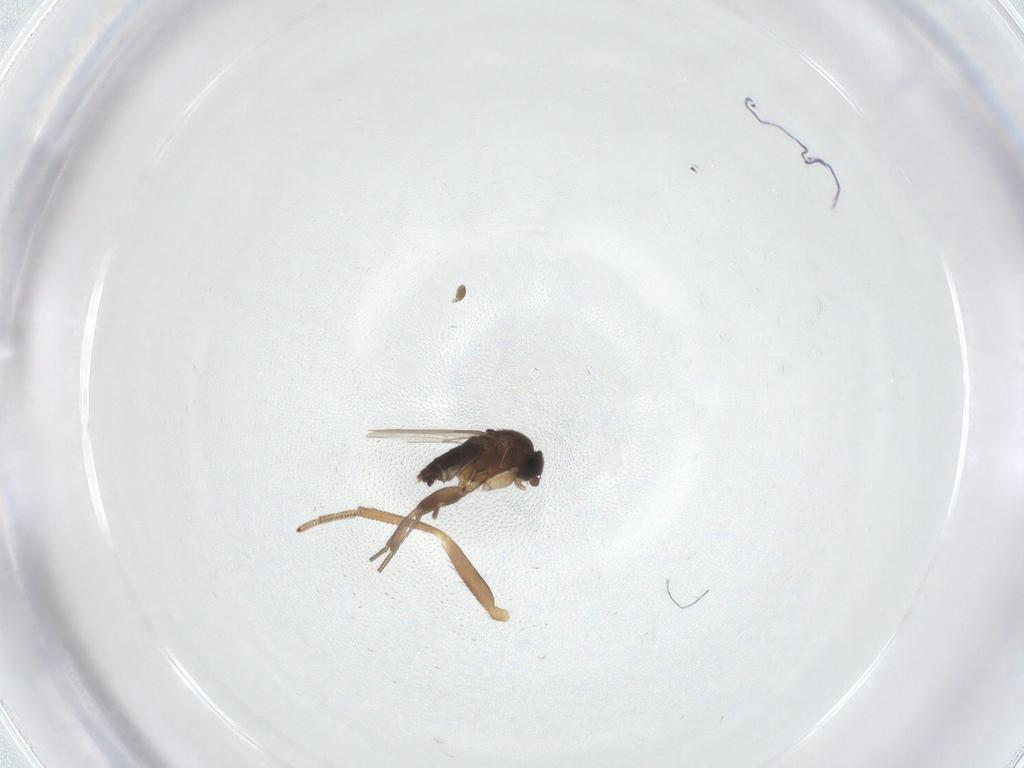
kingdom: Animalia
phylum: Arthropoda
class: Insecta
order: Diptera
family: Phoridae
